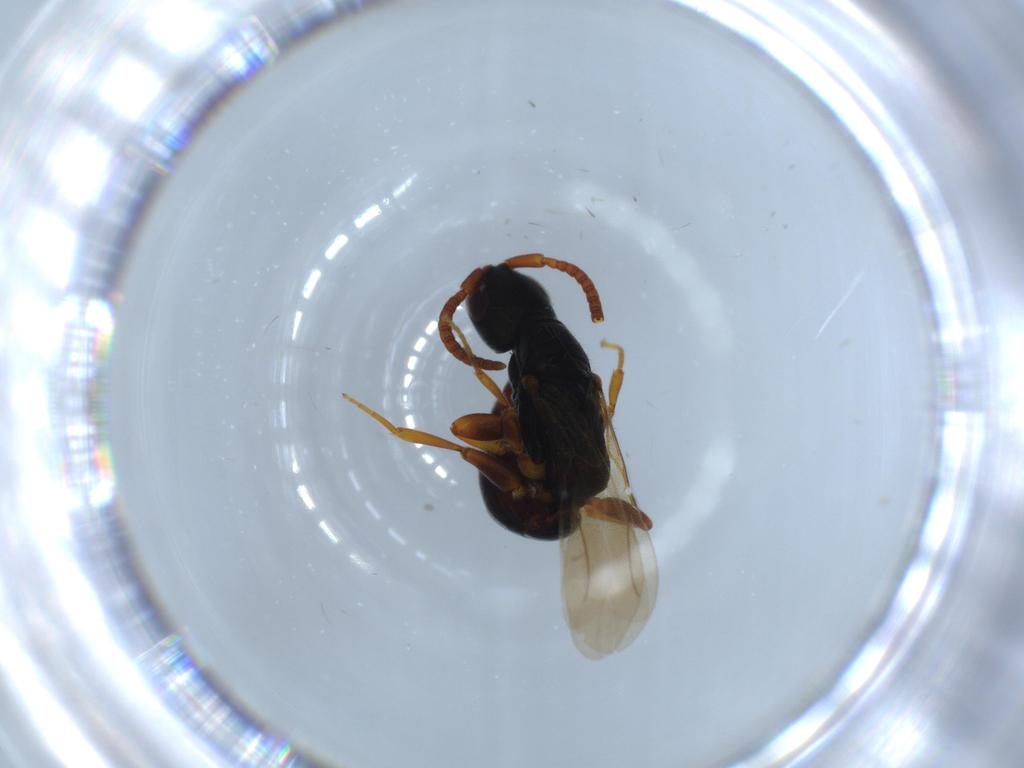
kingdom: Animalia
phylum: Arthropoda
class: Insecta
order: Hymenoptera
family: Bethylidae
